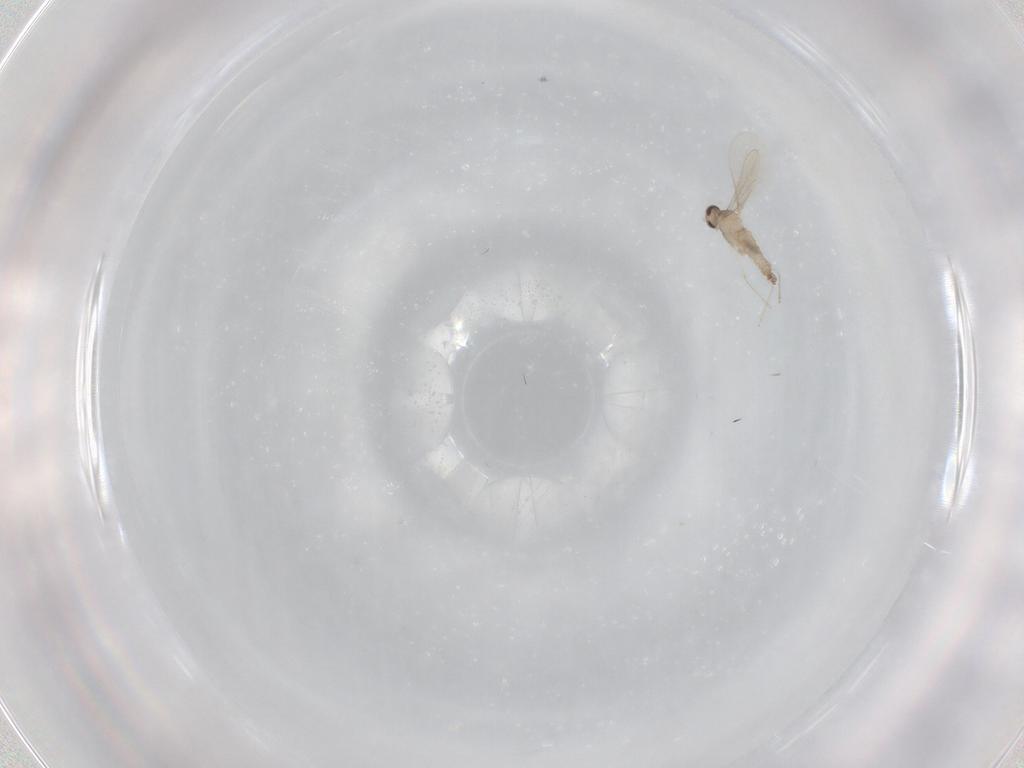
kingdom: Animalia
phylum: Arthropoda
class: Insecta
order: Diptera
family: Cecidomyiidae
